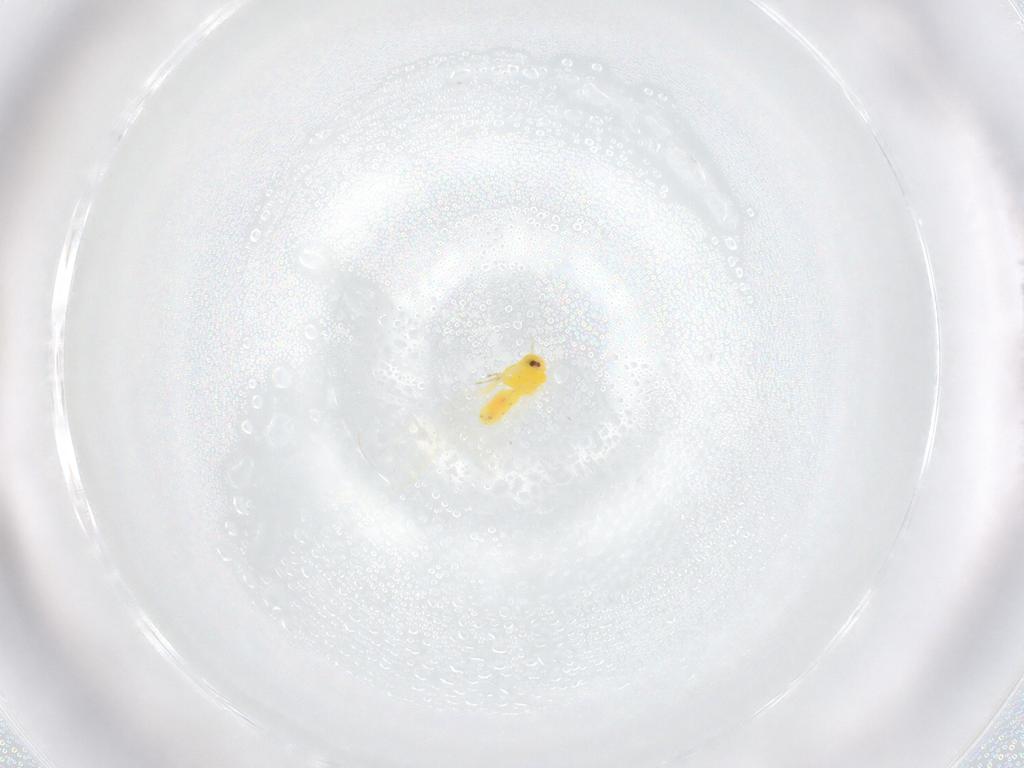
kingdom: Animalia
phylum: Arthropoda
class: Insecta
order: Hemiptera
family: Aleyrodidae
